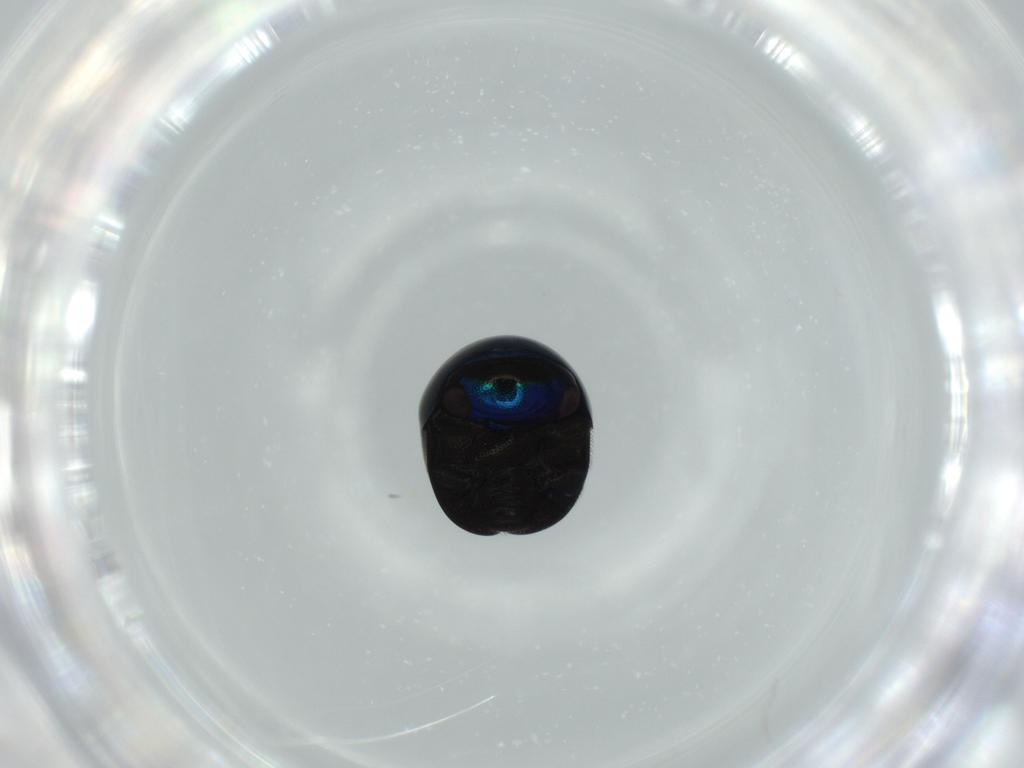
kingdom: Animalia
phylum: Arthropoda
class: Insecta
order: Coleoptera
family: Cybocephalidae
